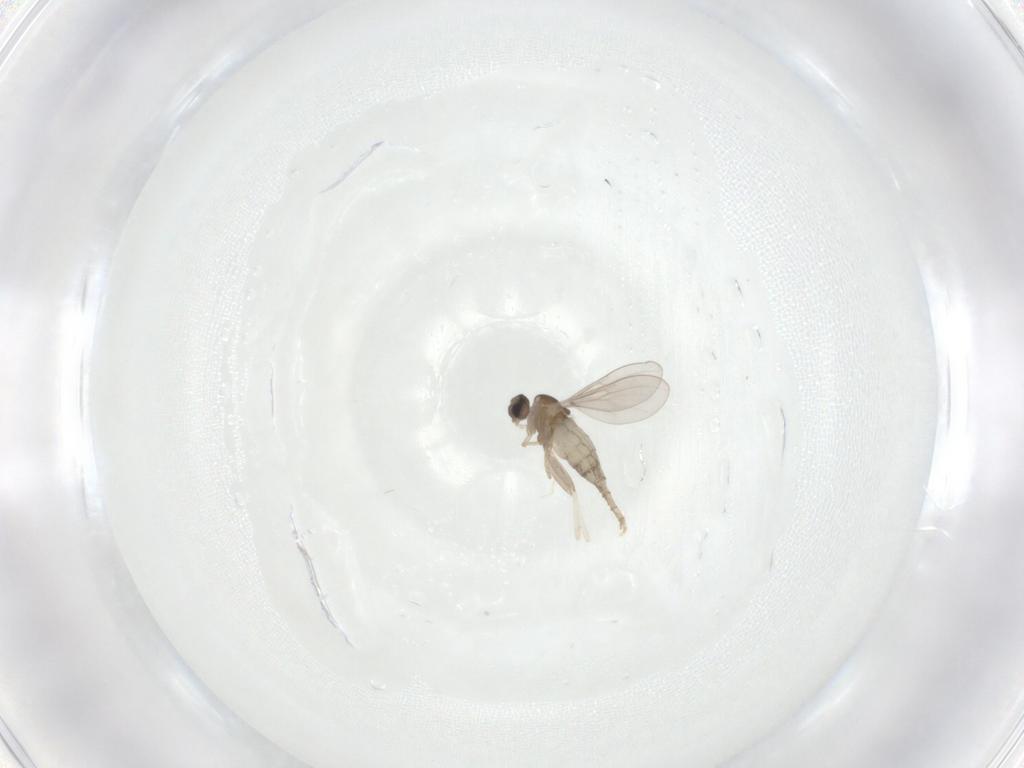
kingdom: Animalia
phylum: Arthropoda
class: Insecta
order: Diptera
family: Cecidomyiidae
